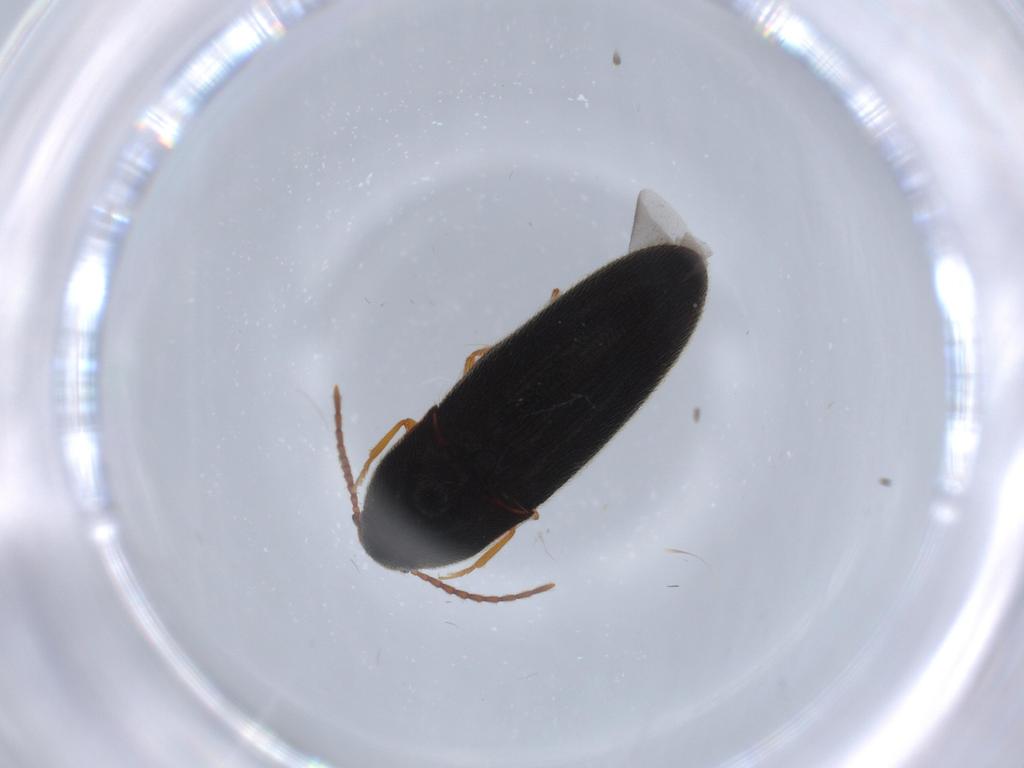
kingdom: Animalia
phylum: Arthropoda
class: Insecta
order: Coleoptera
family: Elateridae
